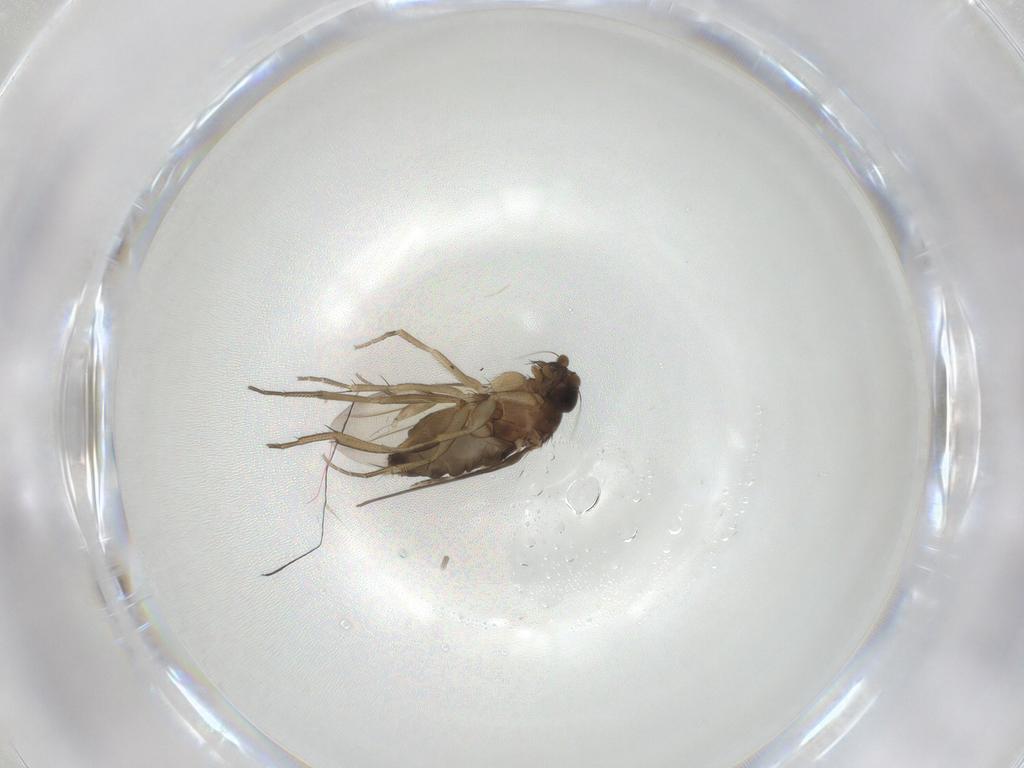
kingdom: Animalia
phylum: Arthropoda
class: Insecta
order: Diptera
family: Phoridae
